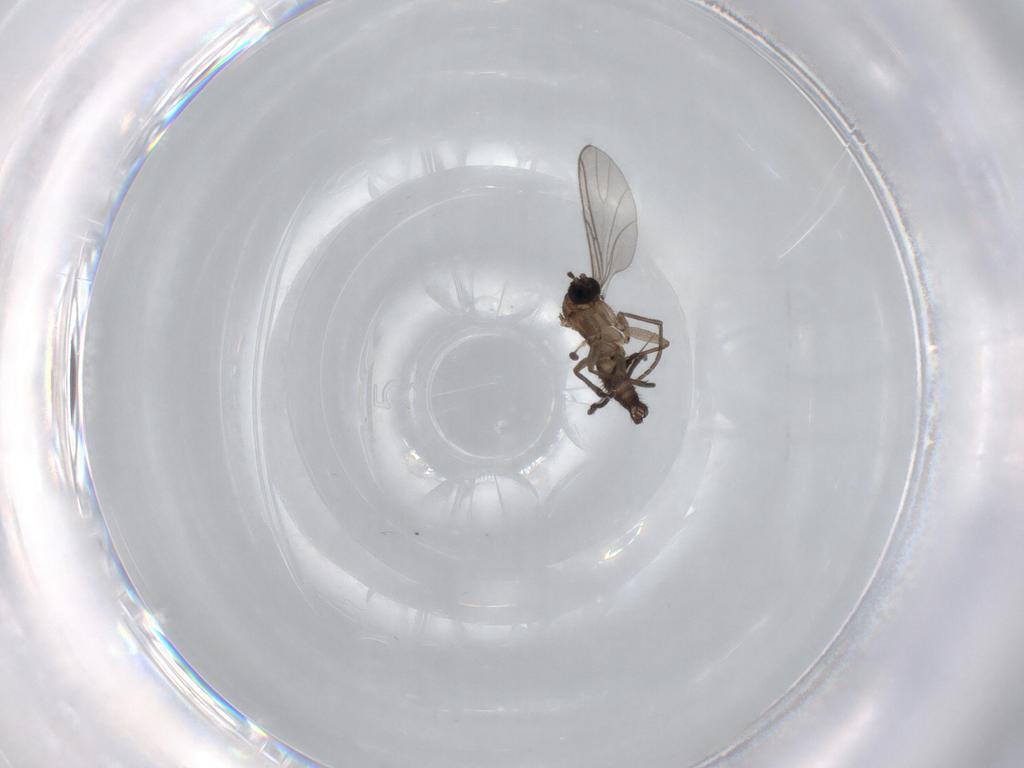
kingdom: Animalia
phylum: Arthropoda
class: Insecta
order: Diptera
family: Sciaridae
